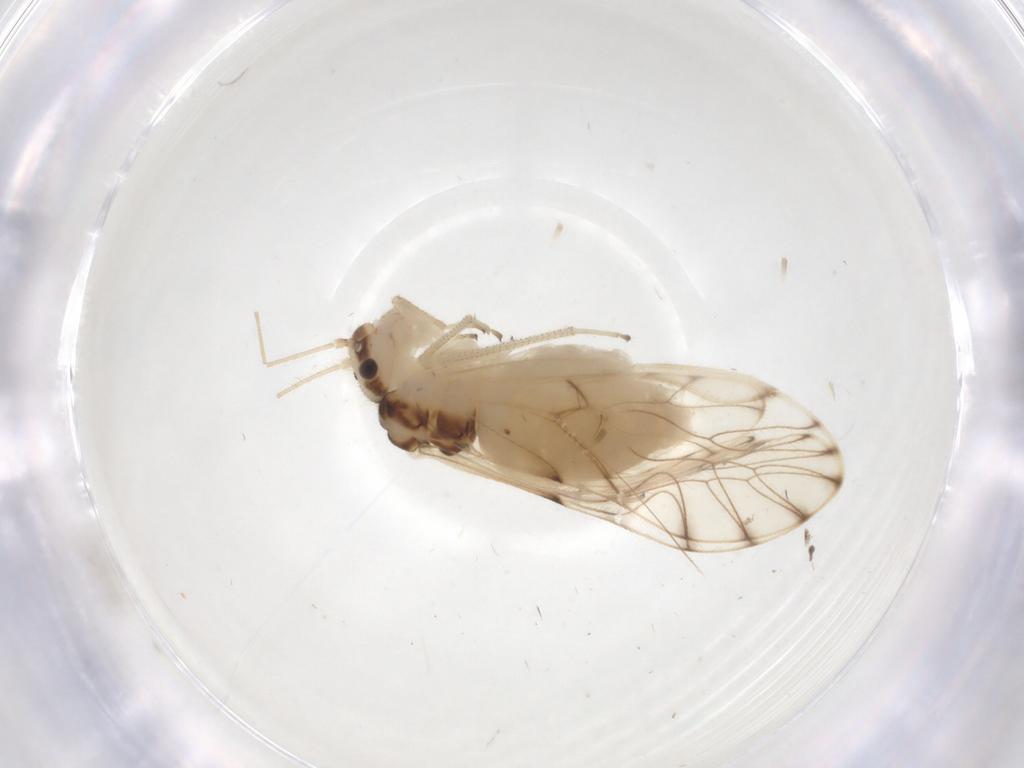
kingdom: Animalia
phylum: Arthropoda
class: Insecta
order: Psocodea
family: Philotarsidae
